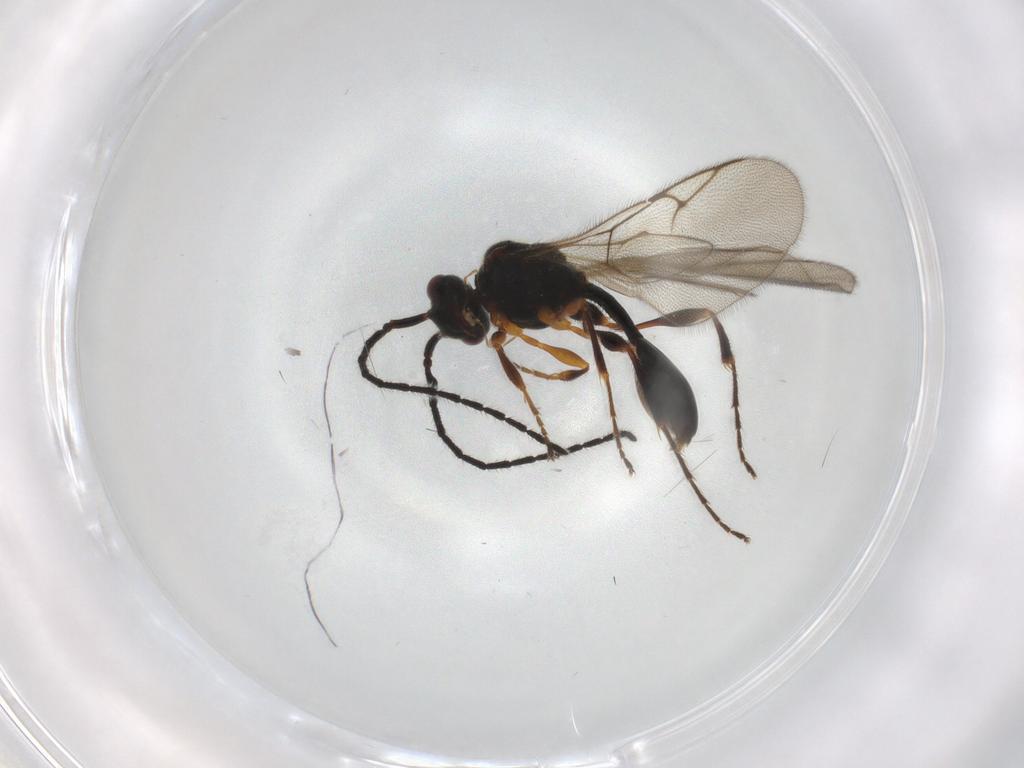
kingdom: Animalia
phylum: Arthropoda
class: Insecta
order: Hymenoptera
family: Diapriidae
